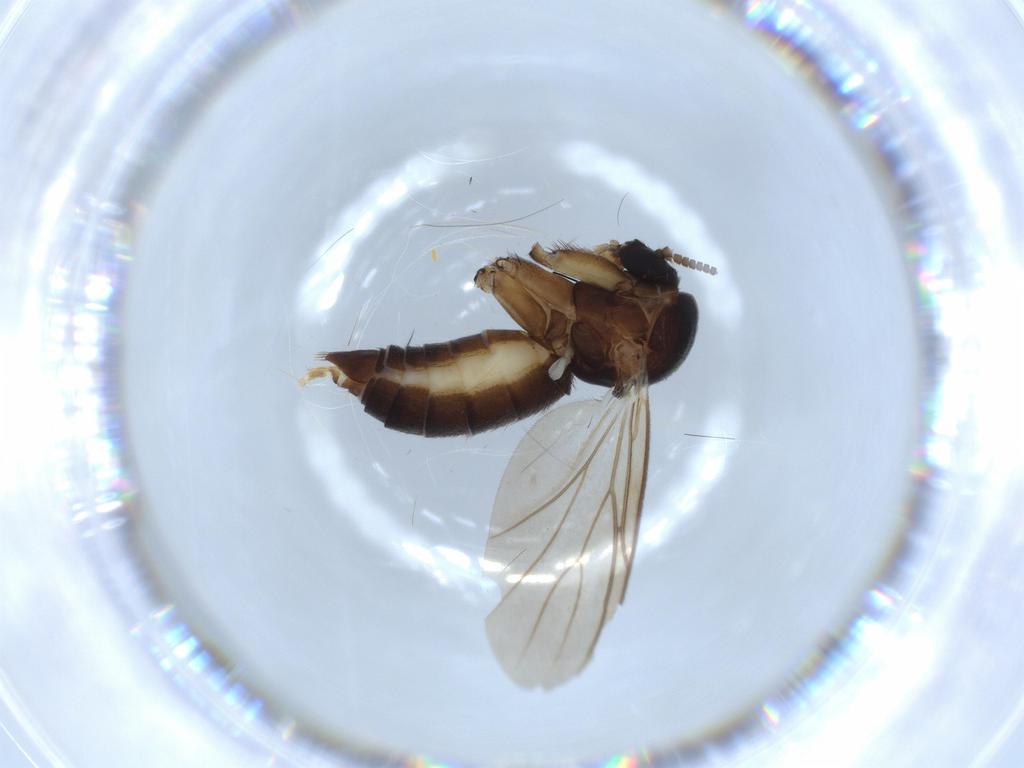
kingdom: Animalia
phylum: Arthropoda
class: Insecta
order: Diptera
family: Mycetophilidae
